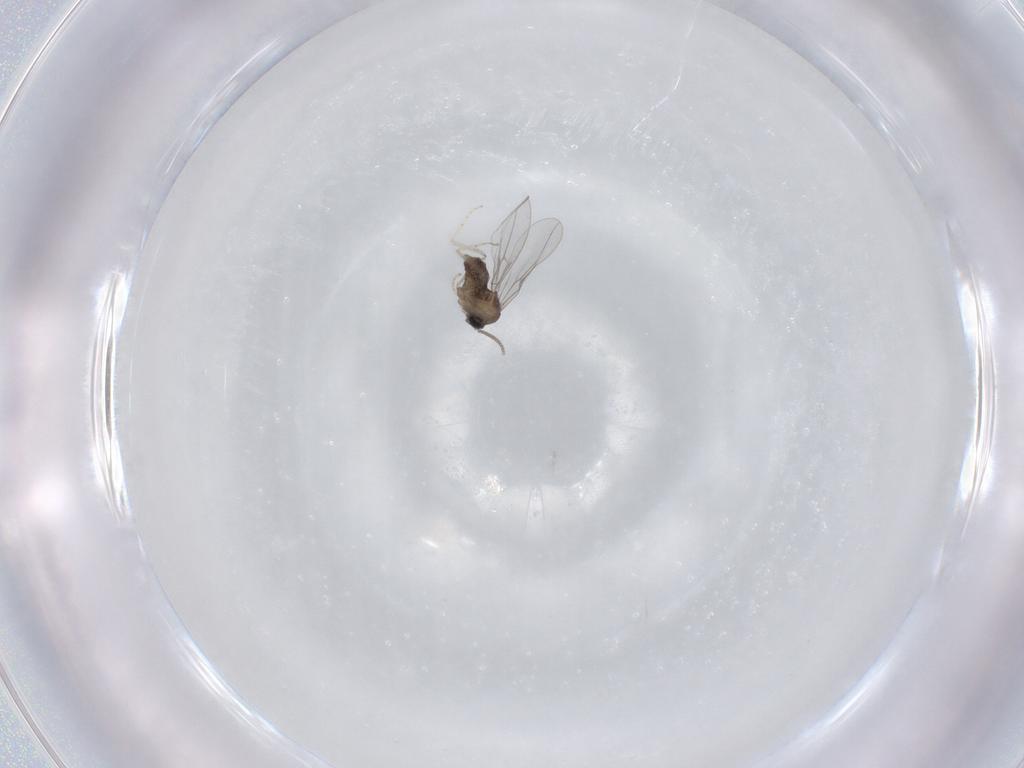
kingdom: Animalia
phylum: Arthropoda
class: Insecta
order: Diptera
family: Cecidomyiidae
